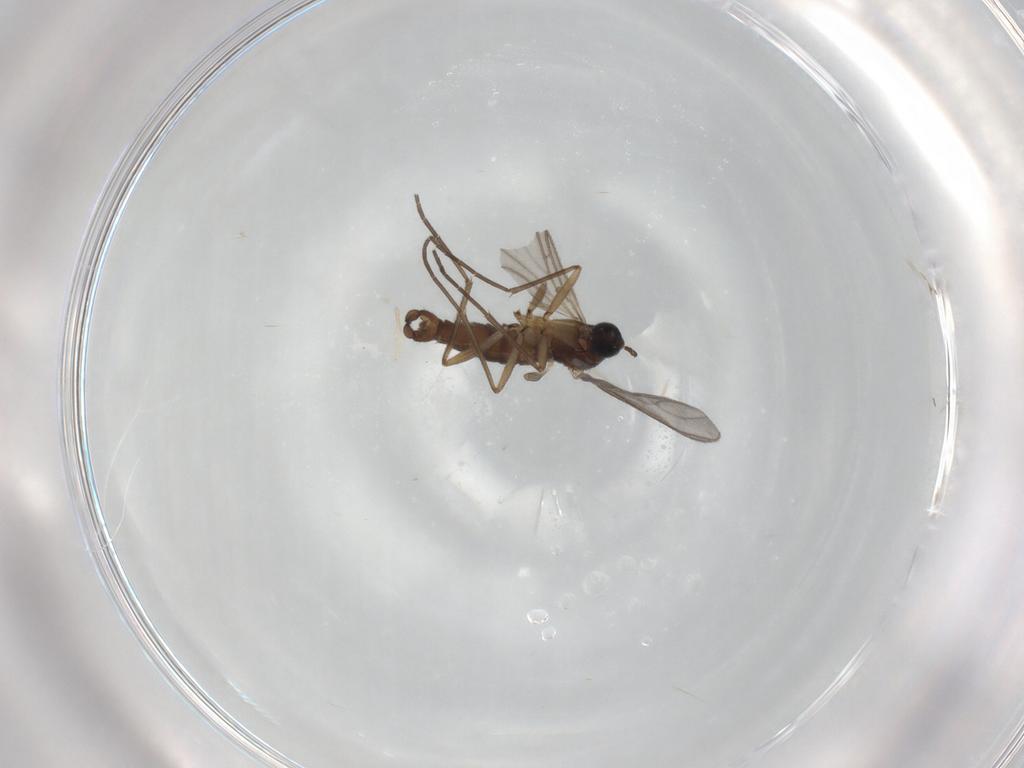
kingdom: Animalia
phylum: Arthropoda
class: Insecta
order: Diptera
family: Sciaridae
